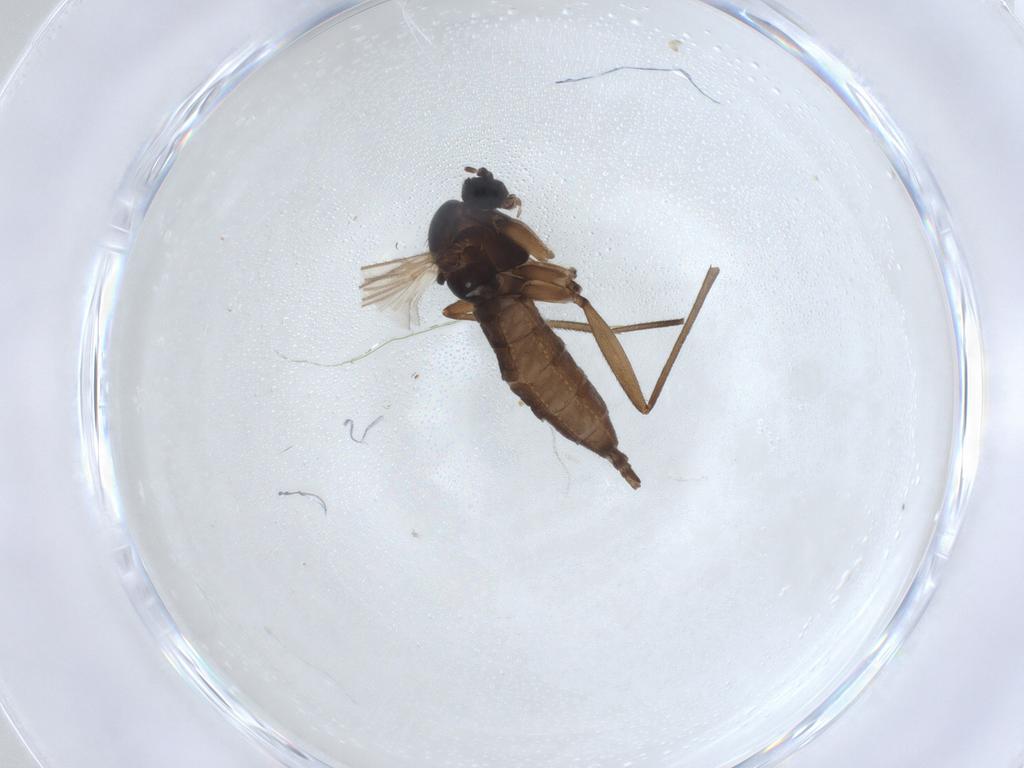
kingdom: Animalia
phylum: Arthropoda
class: Insecta
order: Diptera
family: Sciaridae
